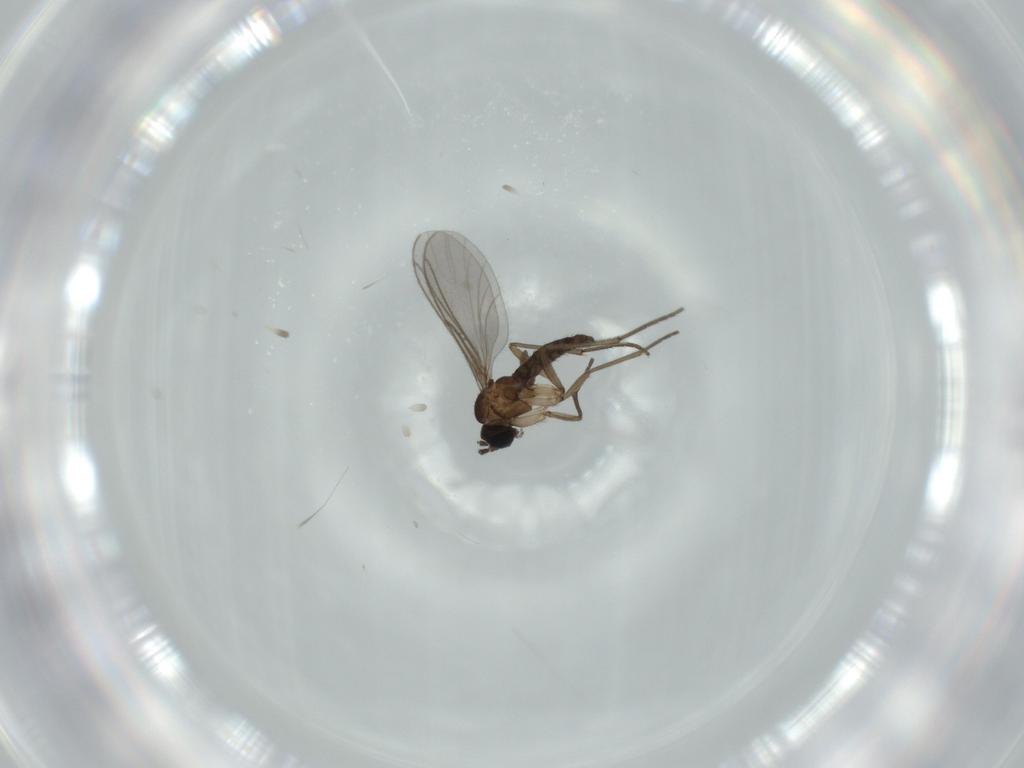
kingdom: Animalia
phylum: Arthropoda
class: Insecta
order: Diptera
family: Sciaridae
